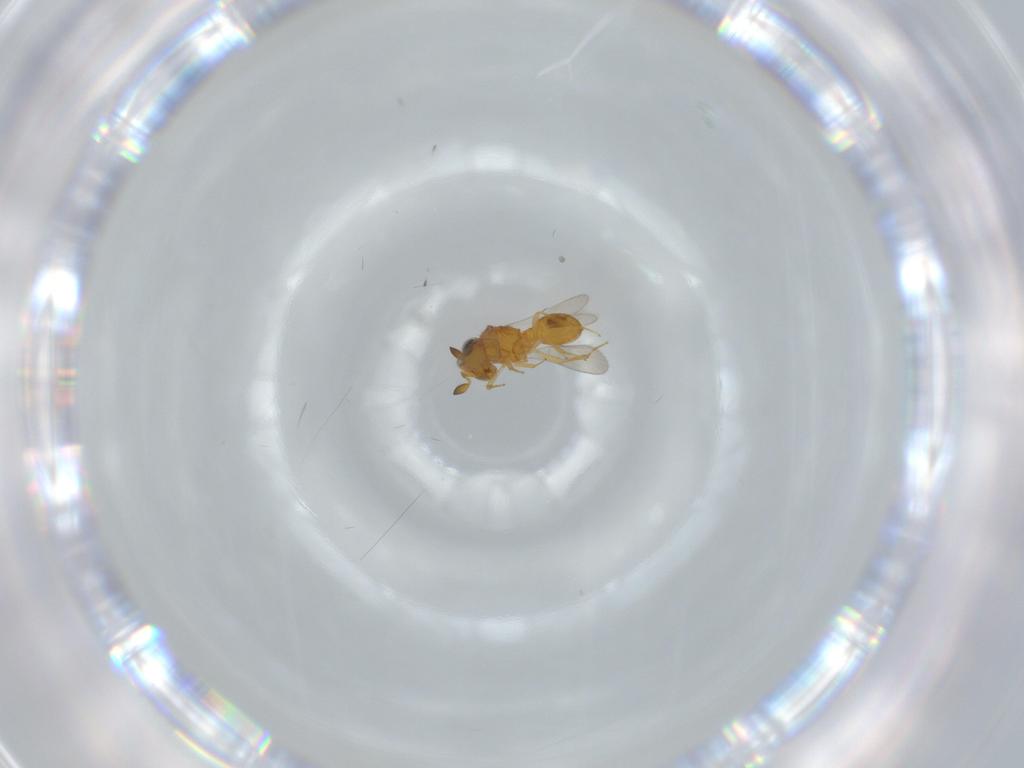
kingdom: Animalia
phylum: Arthropoda
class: Insecta
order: Hymenoptera
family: Scelionidae
